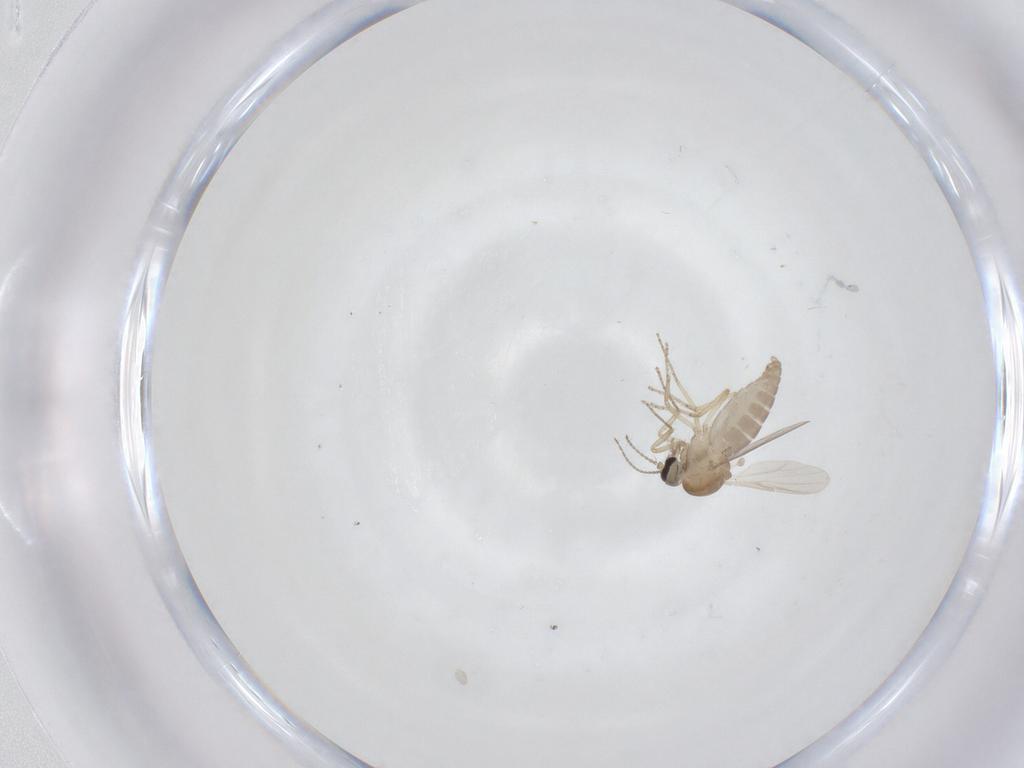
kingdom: Animalia
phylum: Arthropoda
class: Insecta
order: Diptera
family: Ceratopogonidae
